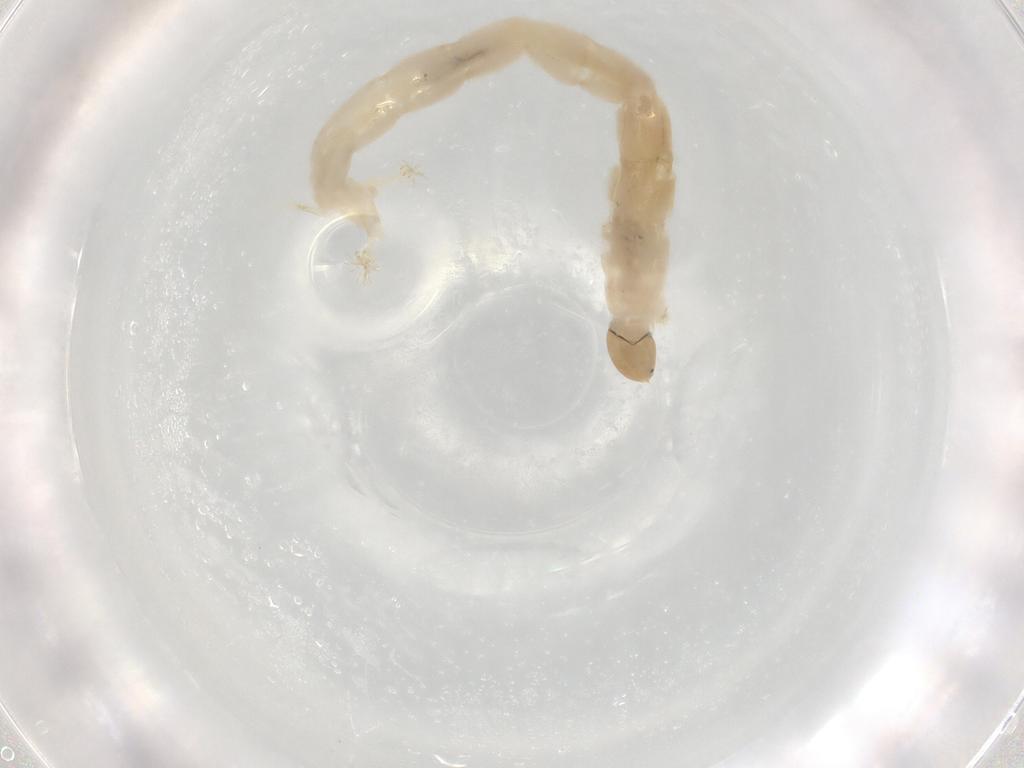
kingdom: Animalia
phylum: Arthropoda
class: Insecta
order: Diptera
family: Chironomidae
